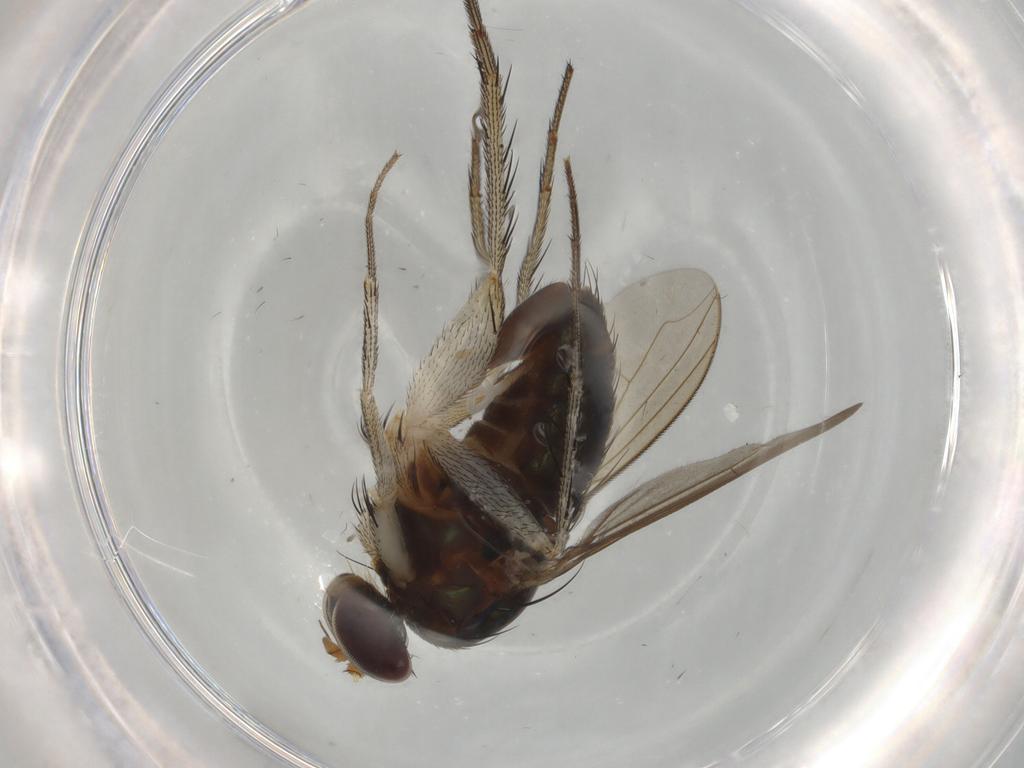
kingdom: Animalia
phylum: Arthropoda
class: Insecta
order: Diptera
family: Dolichopodidae
